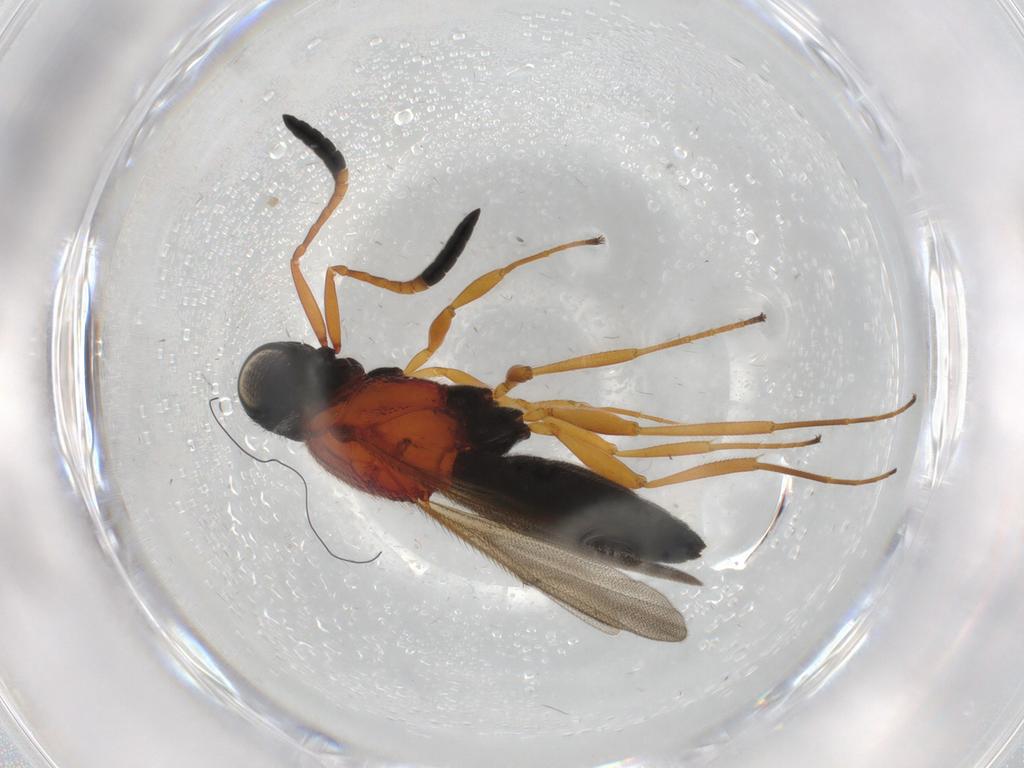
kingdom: Animalia
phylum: Arthropoda
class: Insecta
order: Hymenoptera
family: Scelionidae
